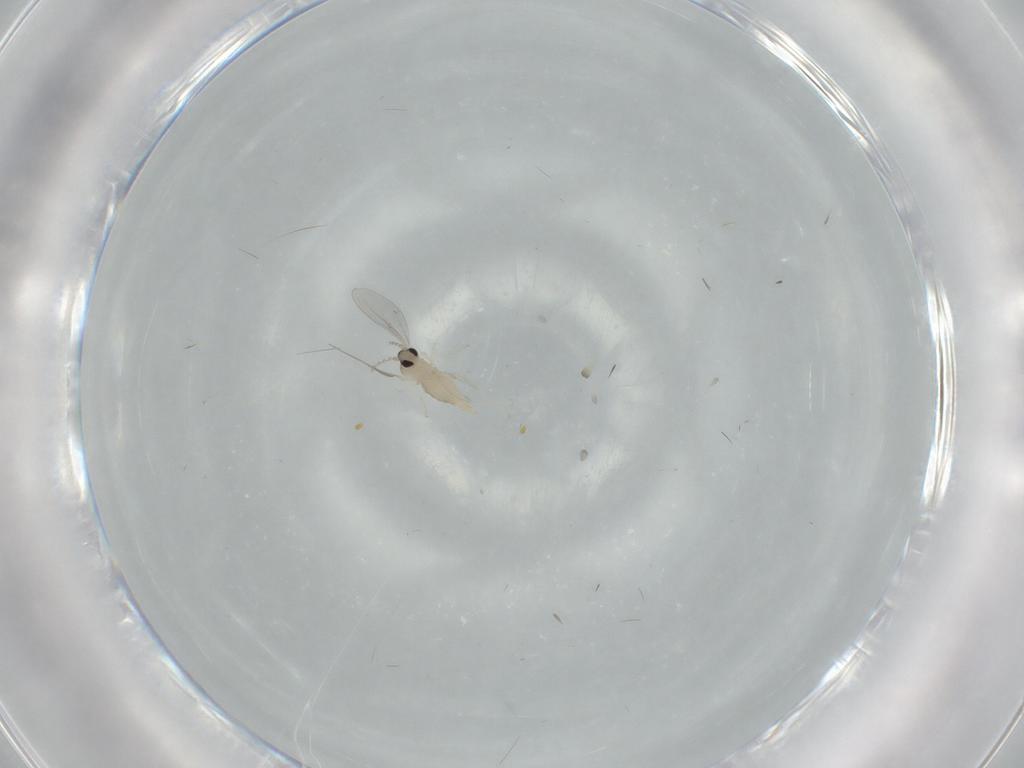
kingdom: Animalia
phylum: Arthropoda
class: Insecta
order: Diptera
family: Cecidomyiidae
